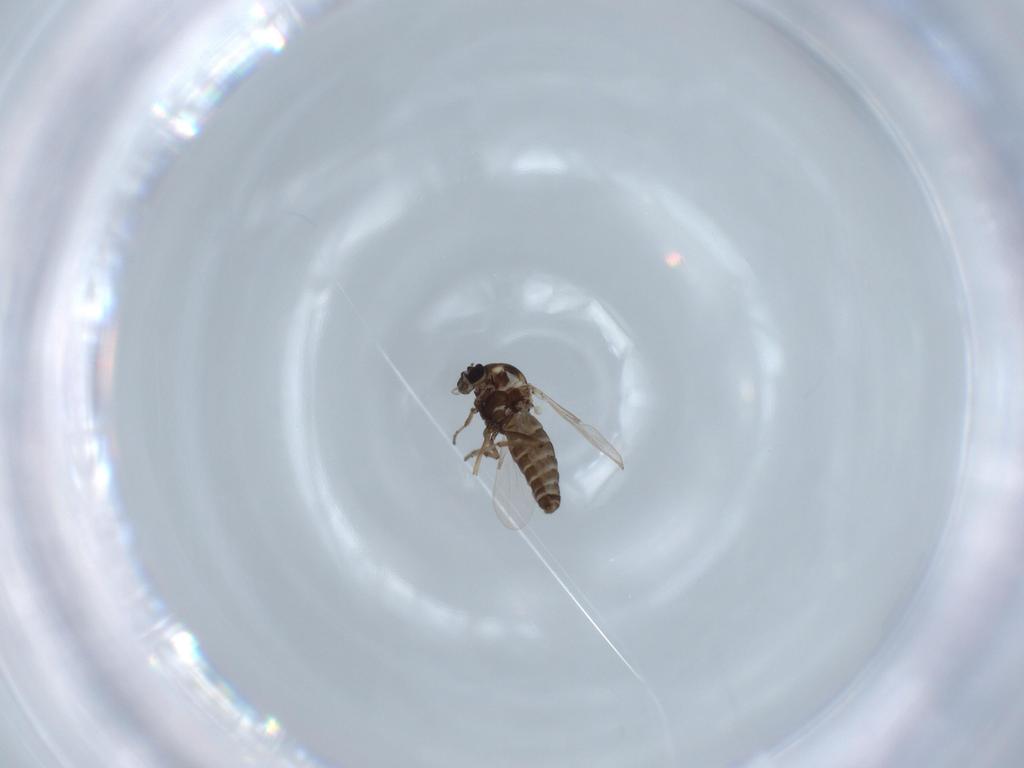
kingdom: Animalia
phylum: Arthropoda
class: Insecta
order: Diptera
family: Ceratopogonidae
